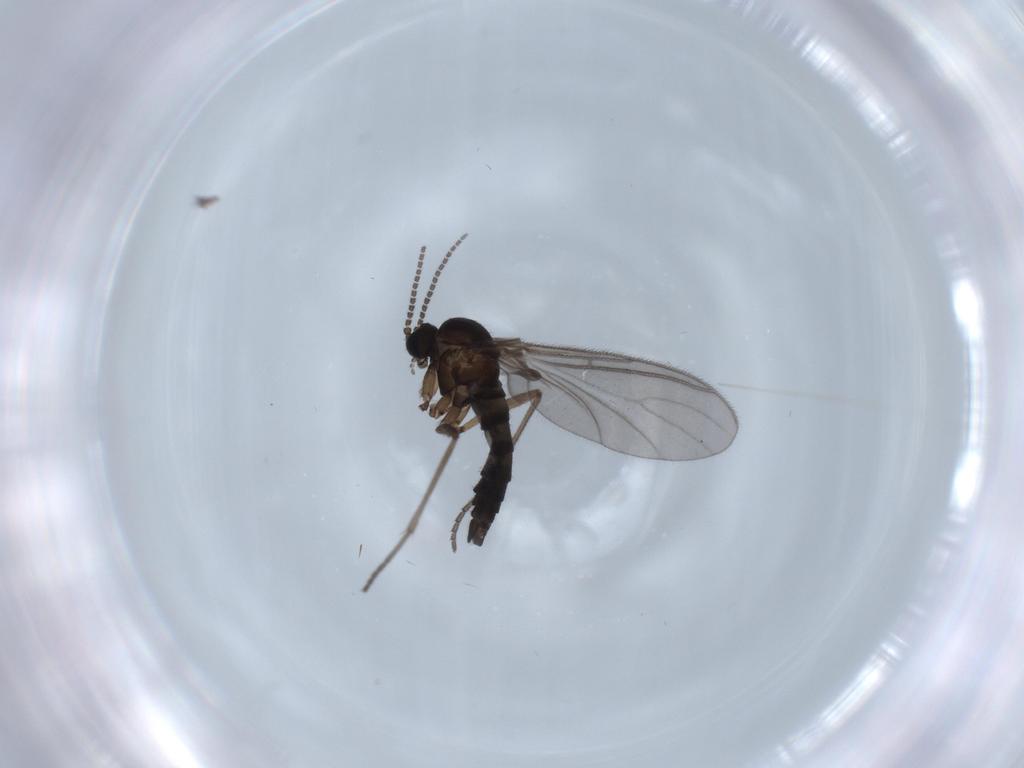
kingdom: Animalia
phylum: Arthropoda
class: Insecta
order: Diptera
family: Sciaridae
